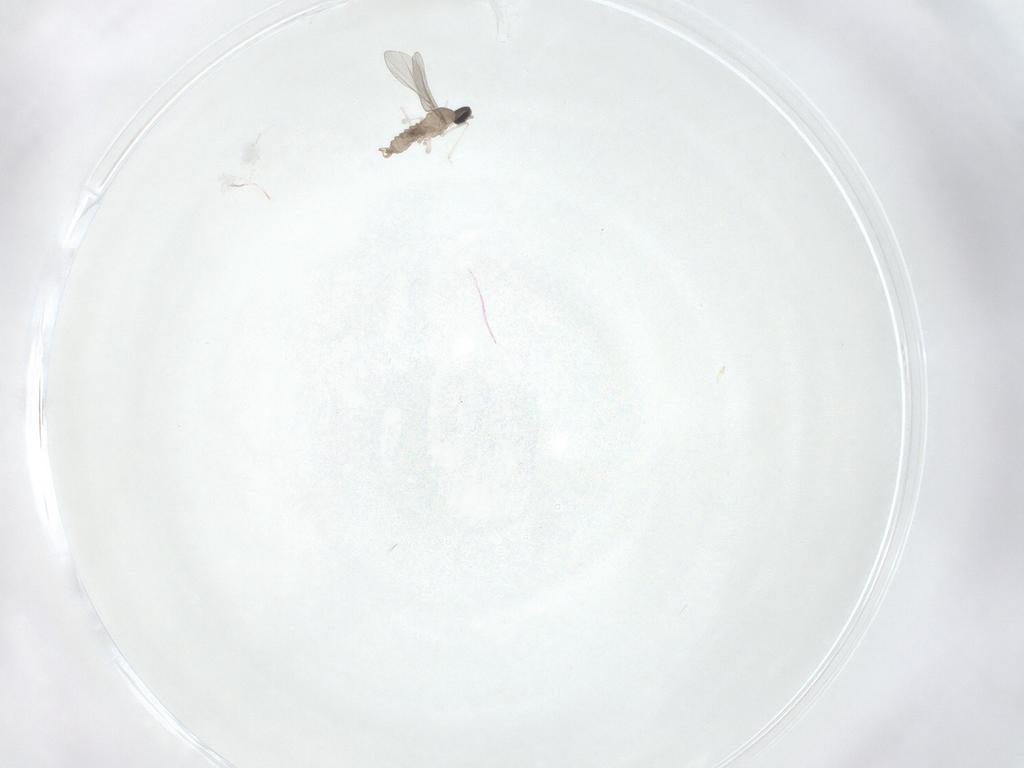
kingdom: Animalia
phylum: Arthropoda
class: Insecta
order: Diptera
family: Cecidomyiidae
